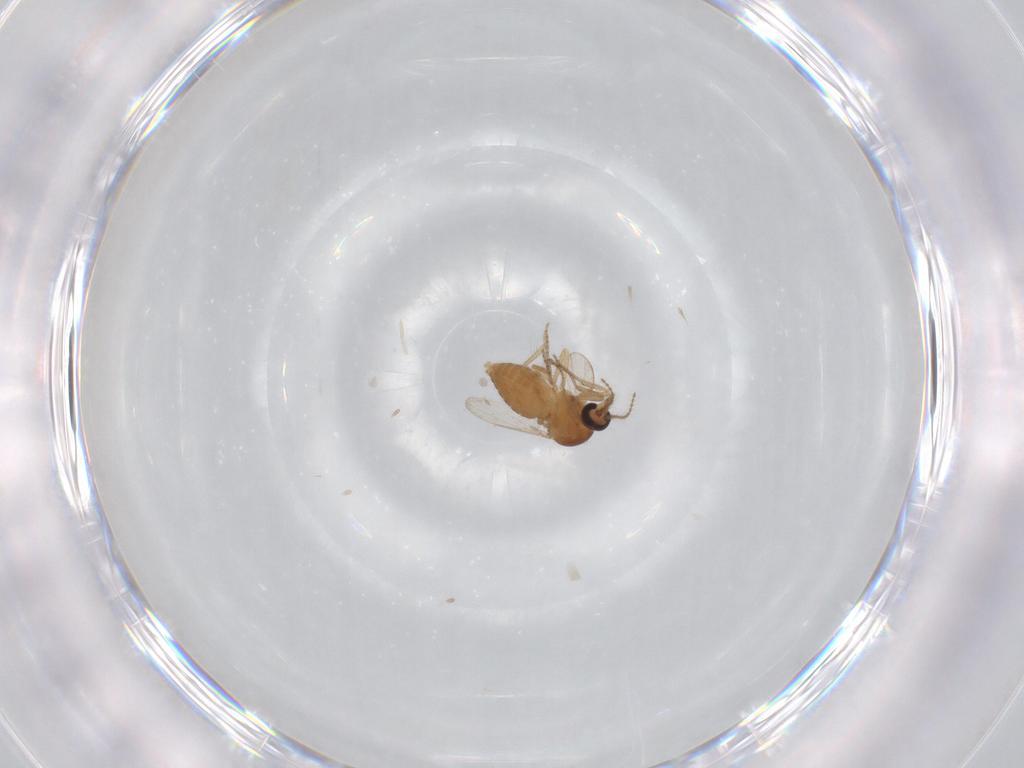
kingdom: Animalia
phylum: Arthropoda
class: Insecta
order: Diptera
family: Ceratopogonidae
